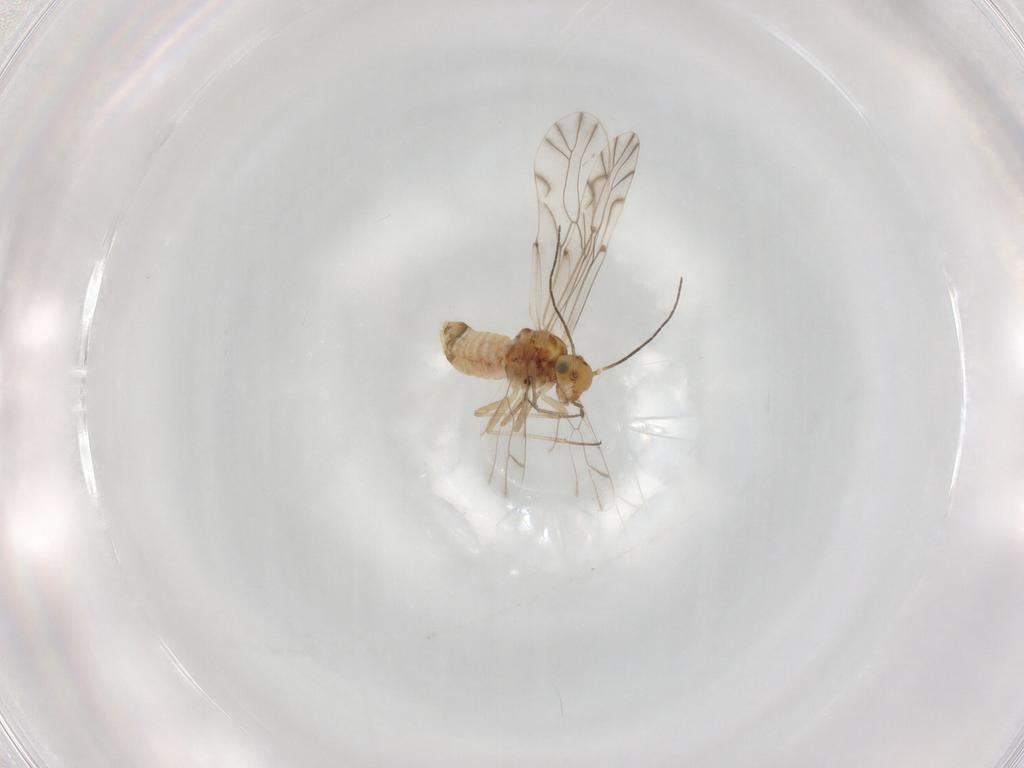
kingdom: Animalia
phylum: Arthropoda
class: Insecta
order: Psocodea
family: Lachesillidae
